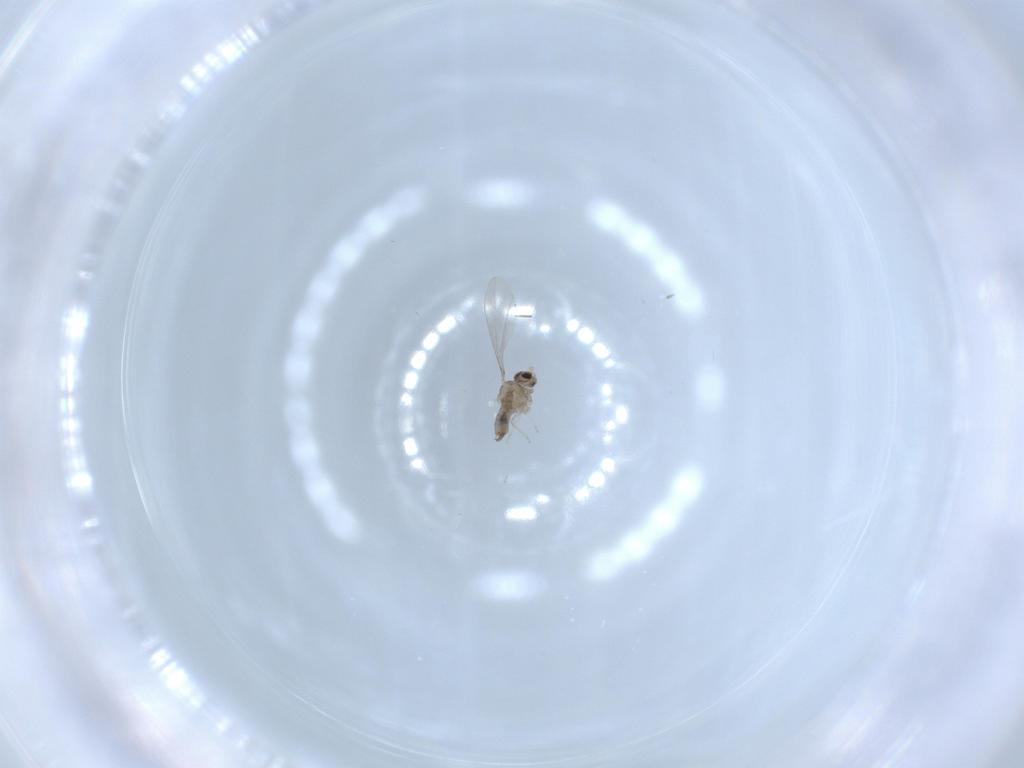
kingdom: Animalia
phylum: Arthropoda
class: Insecta
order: Diptera
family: Cecidomyiidae
